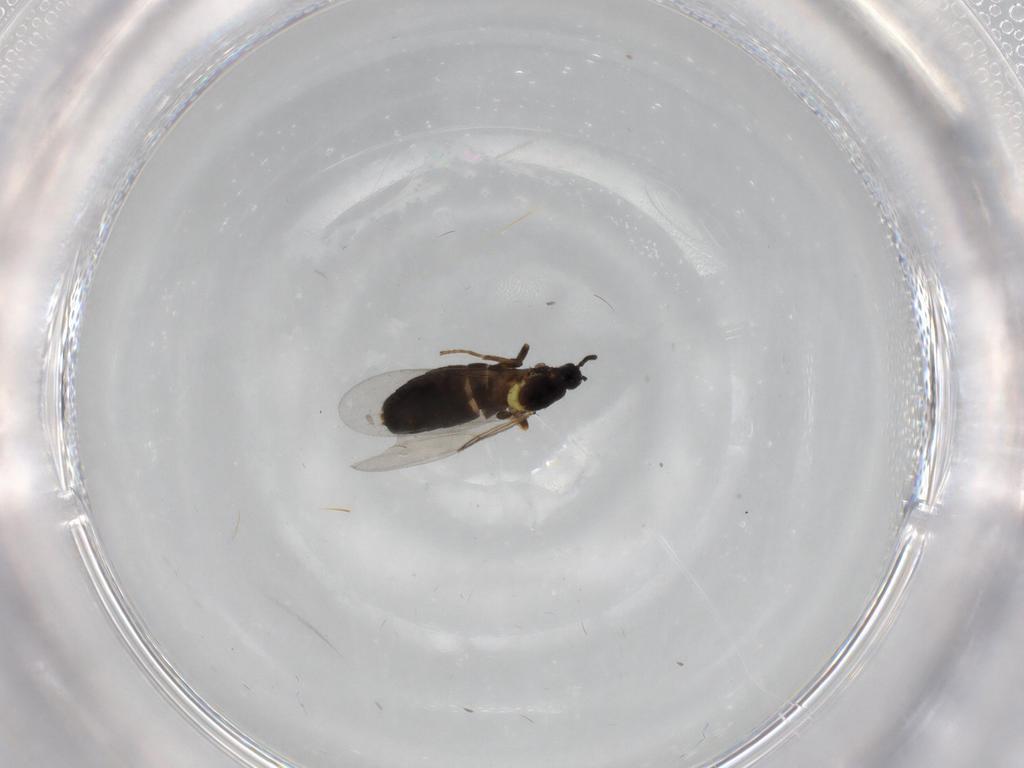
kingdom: Animalia
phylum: Arthropoda
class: Insecta
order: Diptera
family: Scatopsidae
